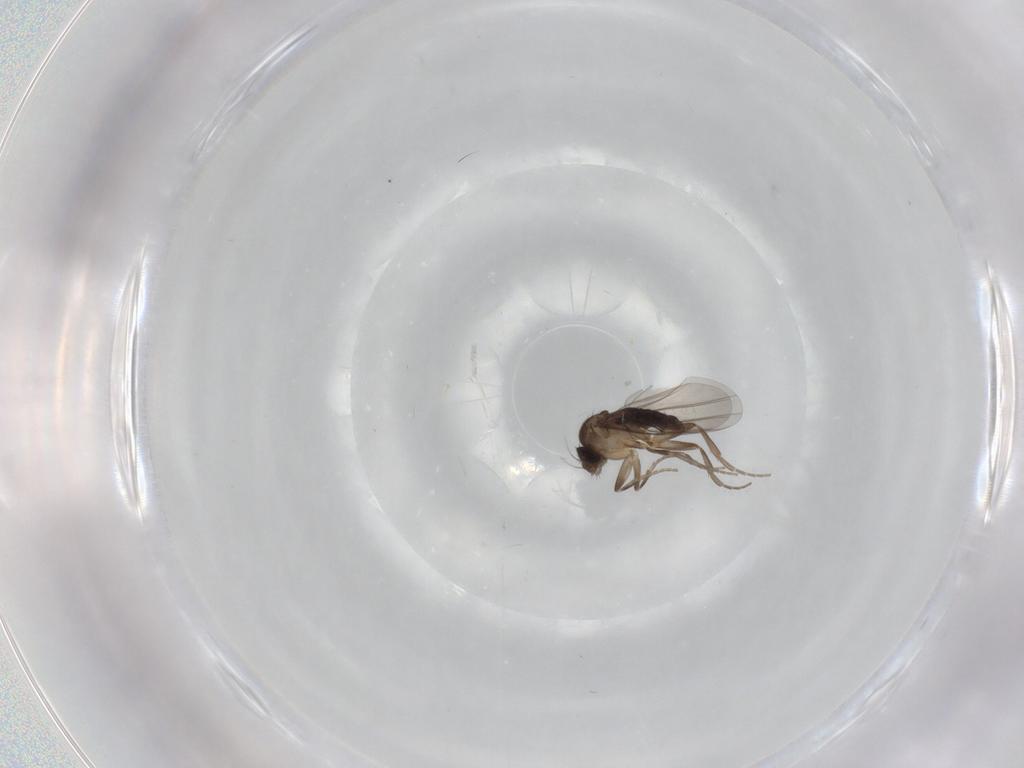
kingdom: Animalia
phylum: Arthropoda
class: Insecta
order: Diptera
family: Phoridae
